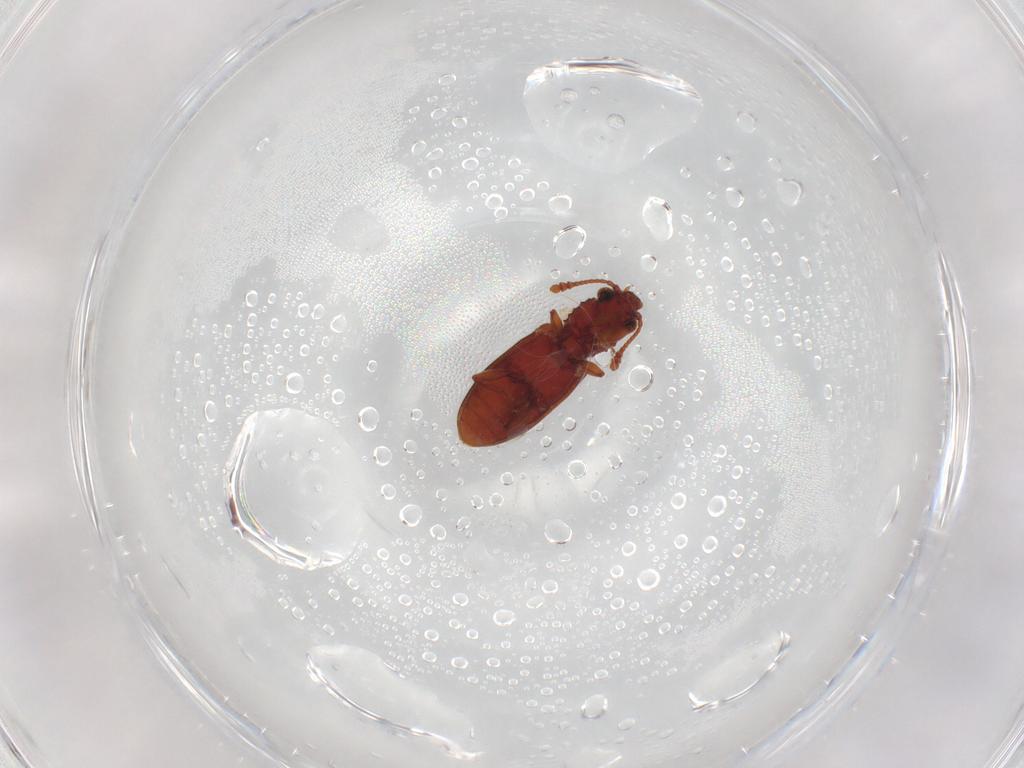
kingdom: Animalia
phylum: Arthropoda
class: Insecta
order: Coleoptera
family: Silvanidae
